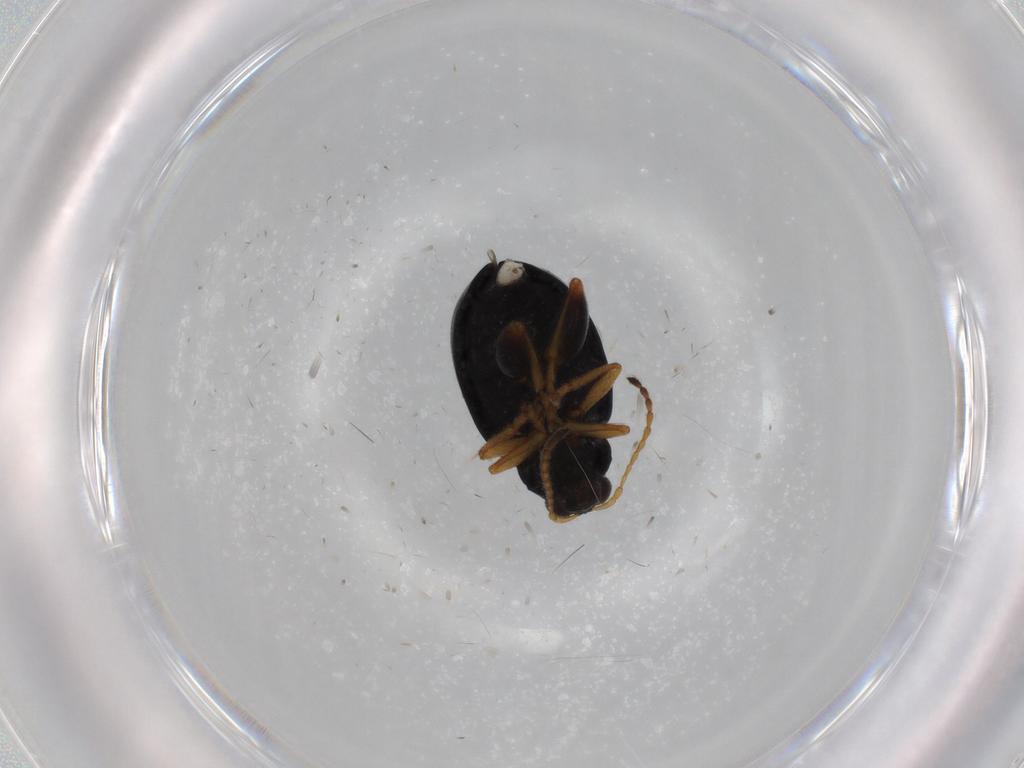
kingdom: Animalia
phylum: Arthropoda
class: Insecta
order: Coleoptera
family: Chrysomelidae
